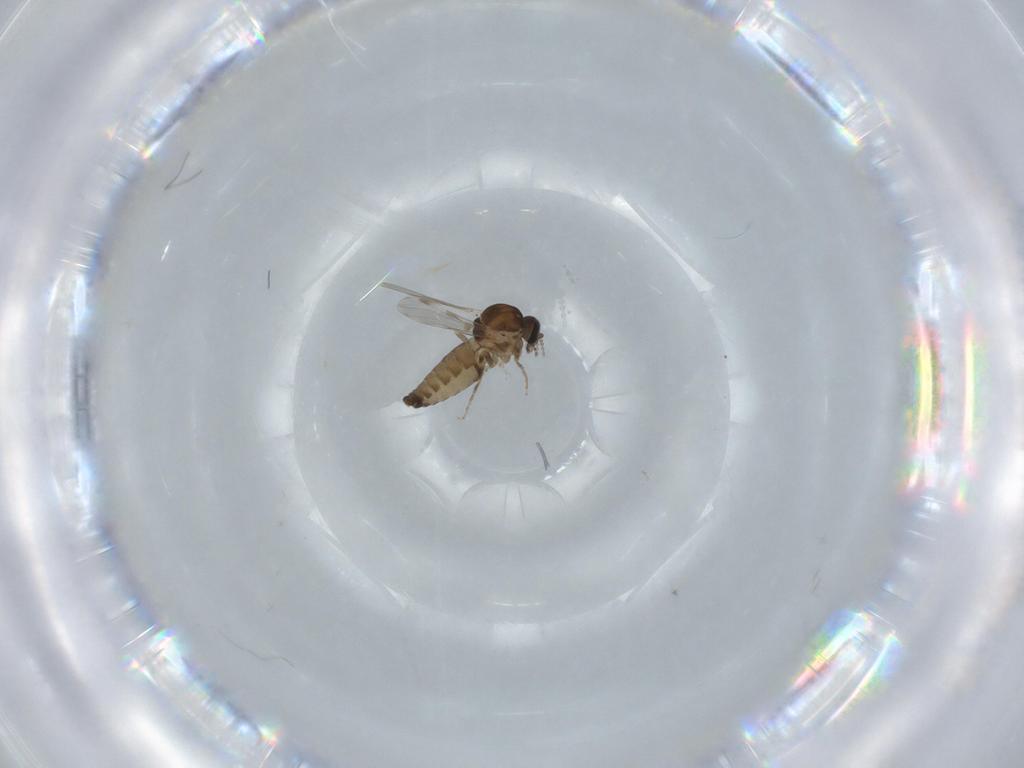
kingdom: Animalia
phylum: Arthropoda
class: Insecta
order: Diptera
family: Ceratopogonidae
